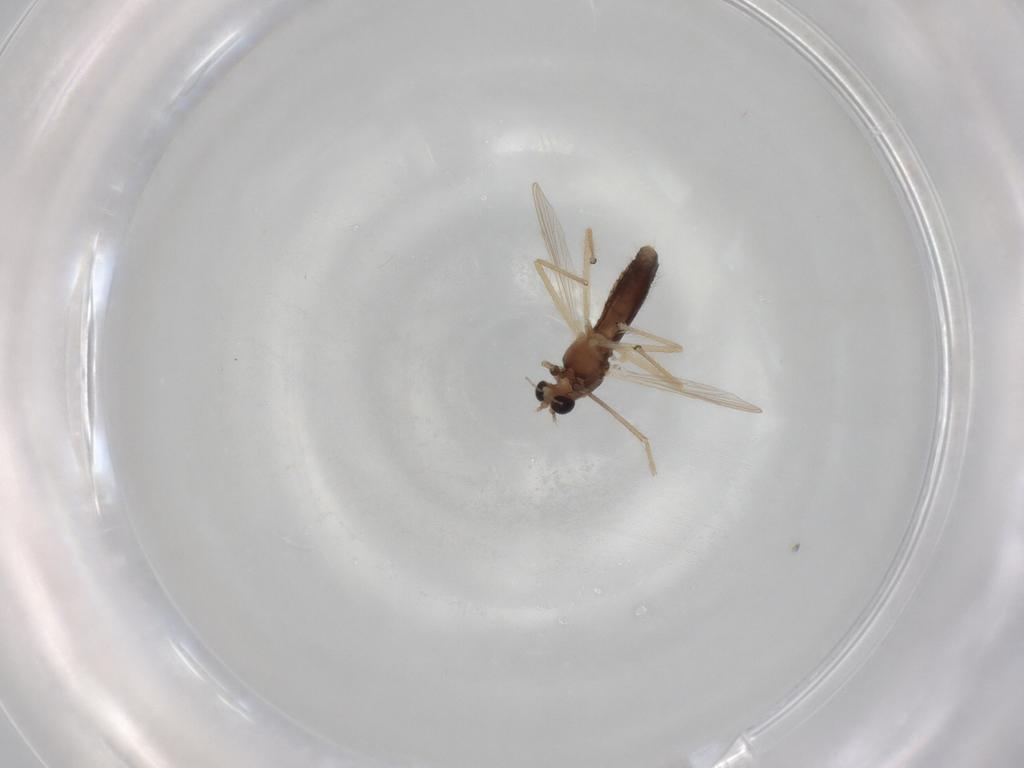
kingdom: Animalia
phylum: Arthropoda
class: Insecta
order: Diptera
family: Chironomidae
